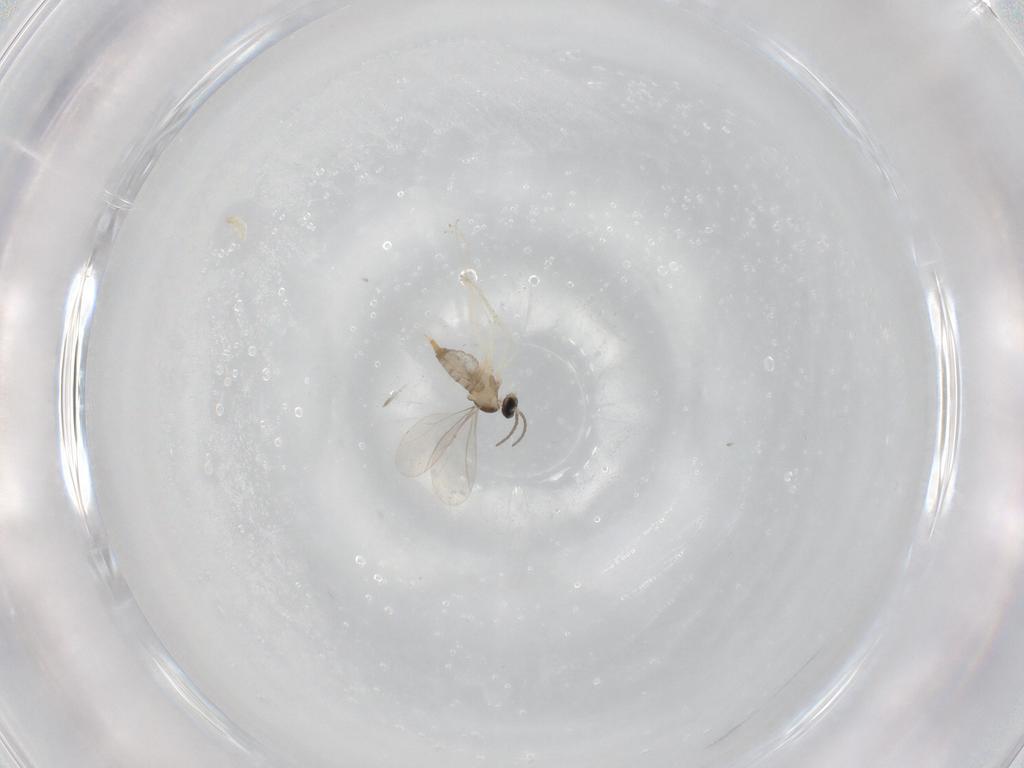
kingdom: Animalia
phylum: Arthropoda
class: Insecta
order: Diptera
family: Cecidomyiidae
